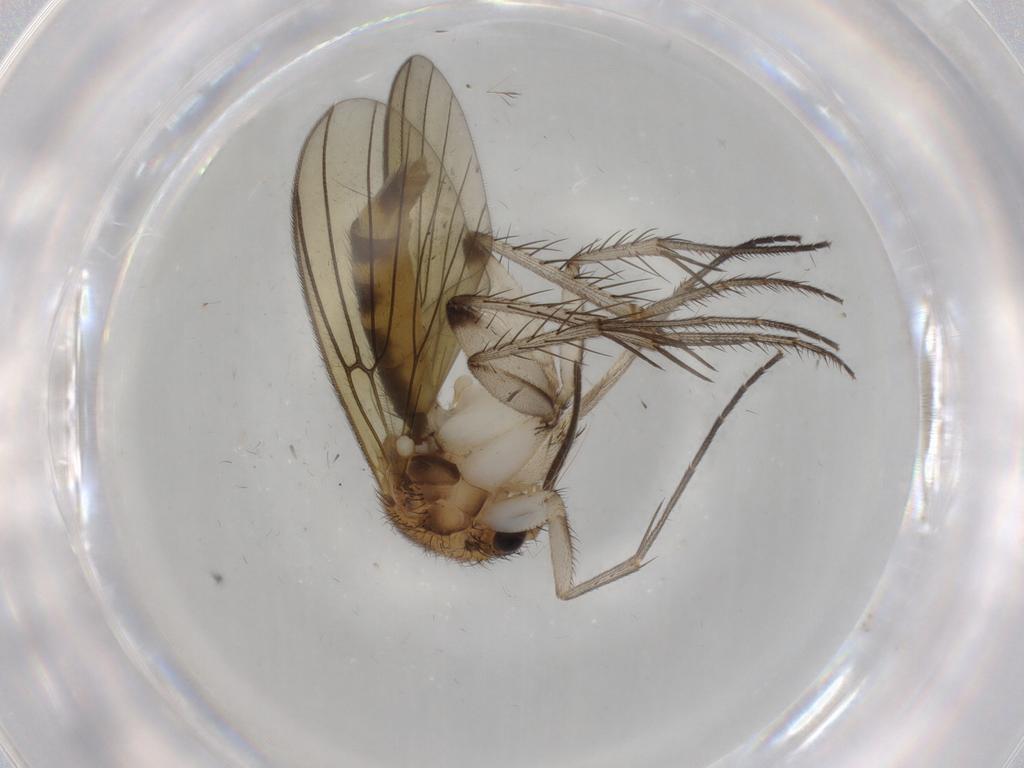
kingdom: Animalia
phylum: Arthropoda
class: Insecta
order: Diptera
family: Mycetophilidae
